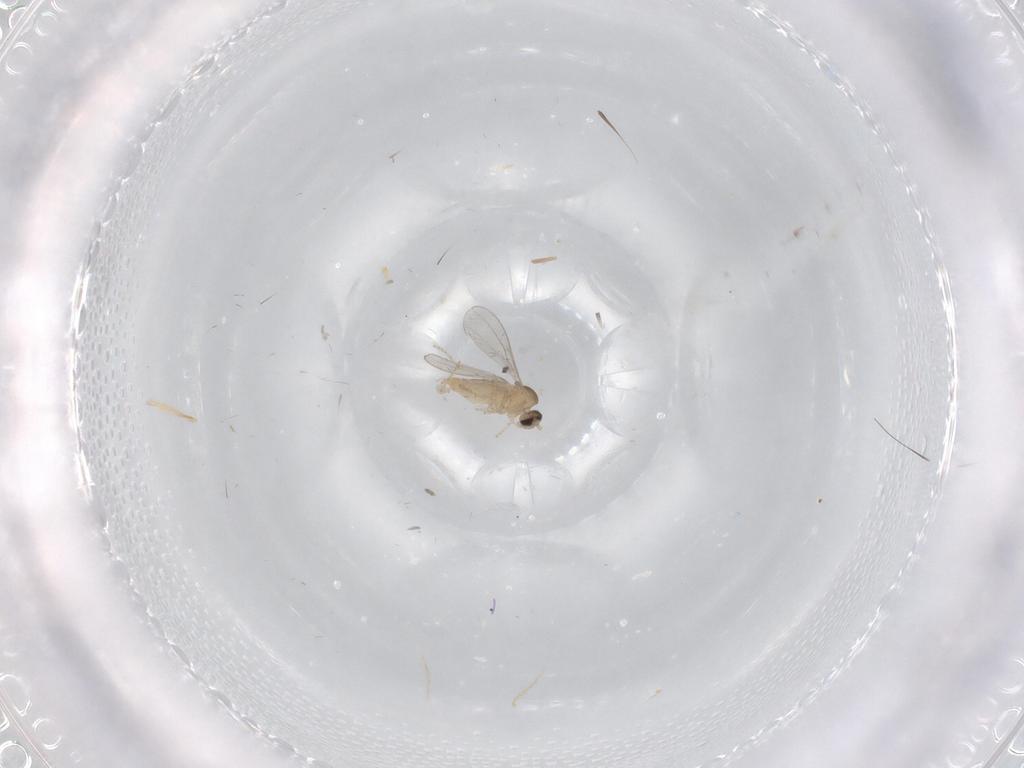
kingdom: Animalia
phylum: Arthropoda
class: Insecta
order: Diptera
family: Cecidomyiidae
